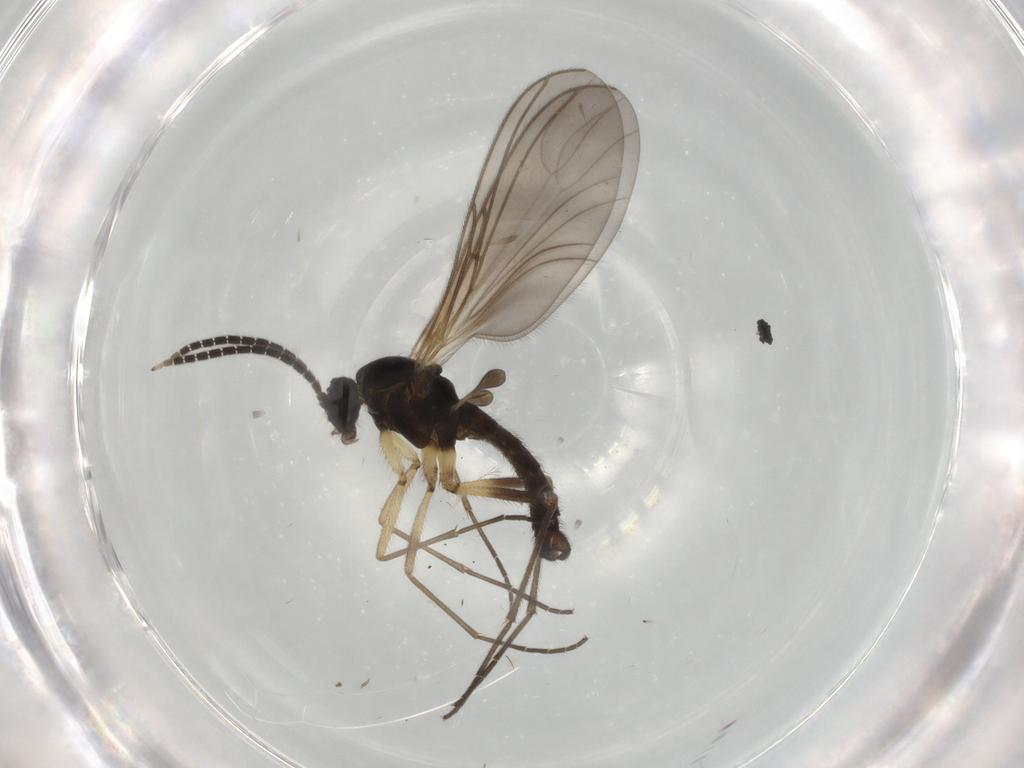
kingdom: Animalia
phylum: Arthropoda
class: Insecta
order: Diptera
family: Sciaridae
